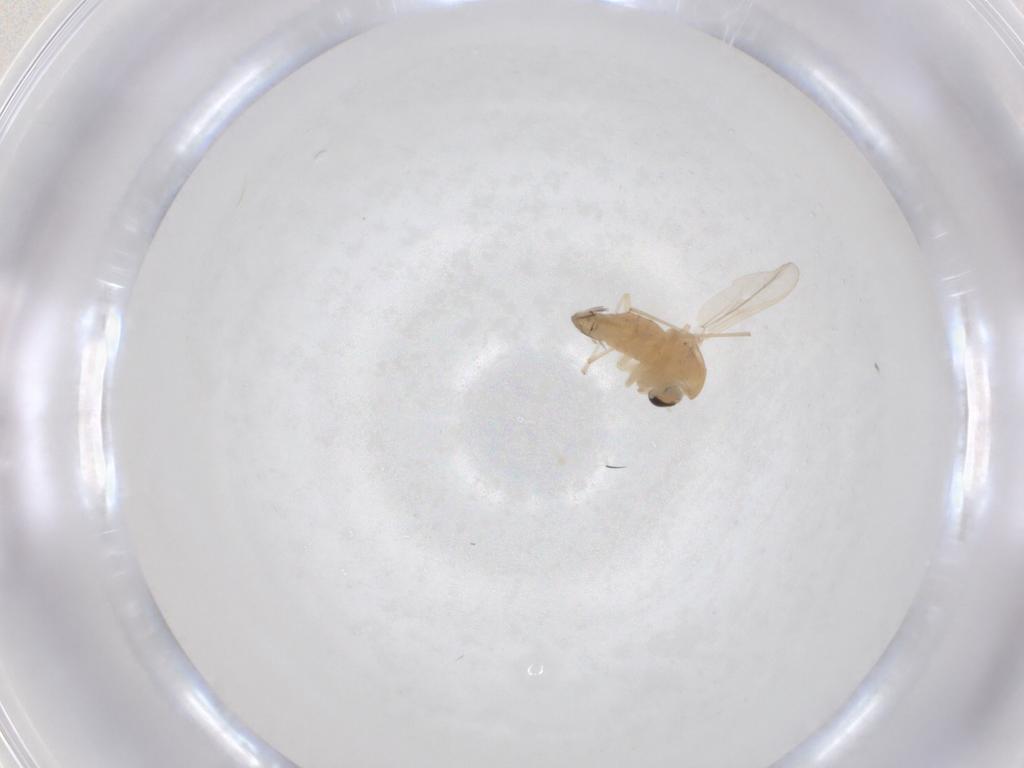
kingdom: Animalia
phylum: Arthropoda
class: Insecta
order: Diptera
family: Chironomidae
